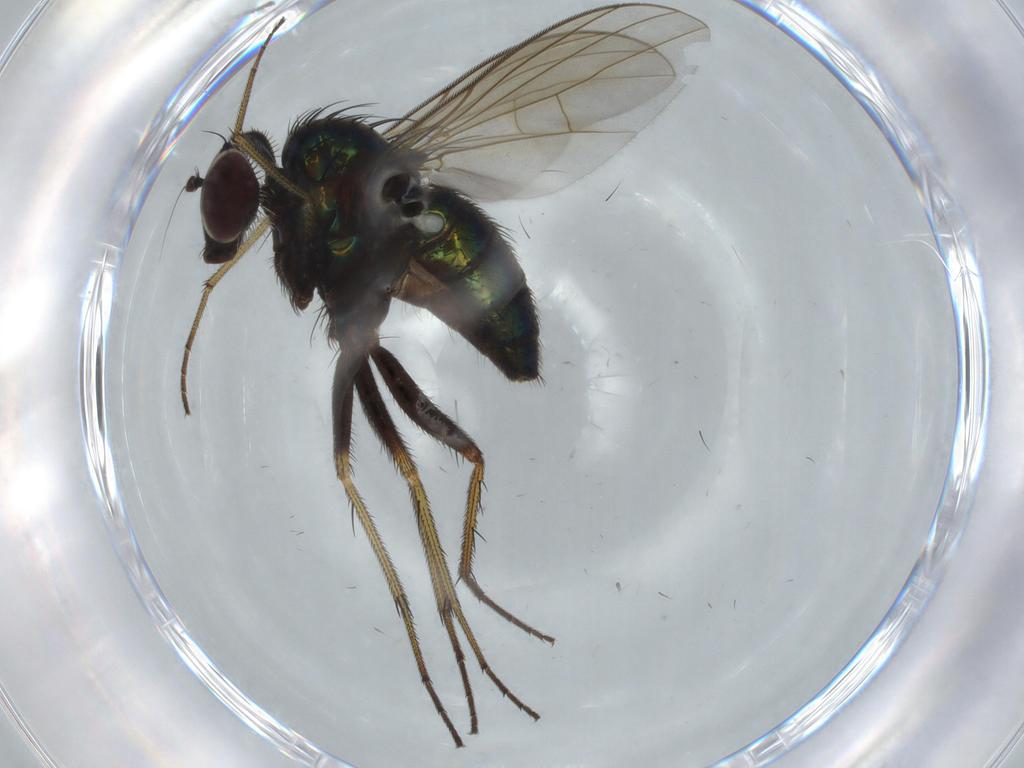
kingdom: Animalia
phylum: Arthropoda
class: Insecta
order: Diptera
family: Dolichopodidae
